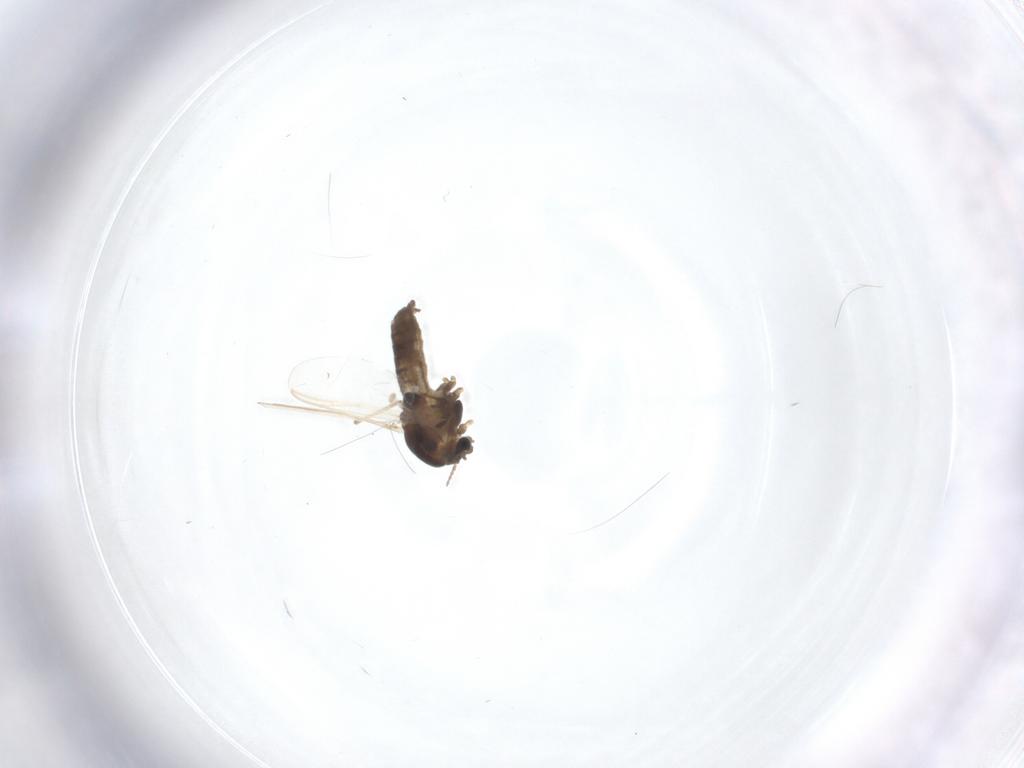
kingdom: Animalia
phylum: Arthropoda
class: Insecta
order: Diptera
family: Chironomidae
